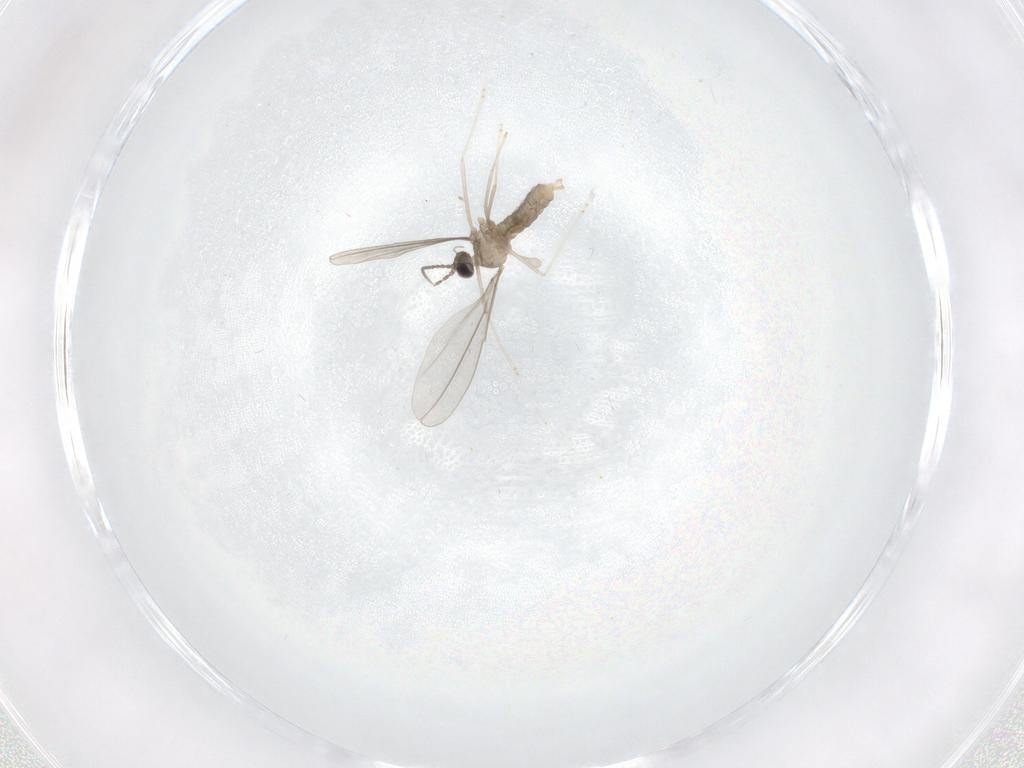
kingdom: Animalia
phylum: Arthropoda
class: Insecta
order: Diptera
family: Cecidomyiidae
